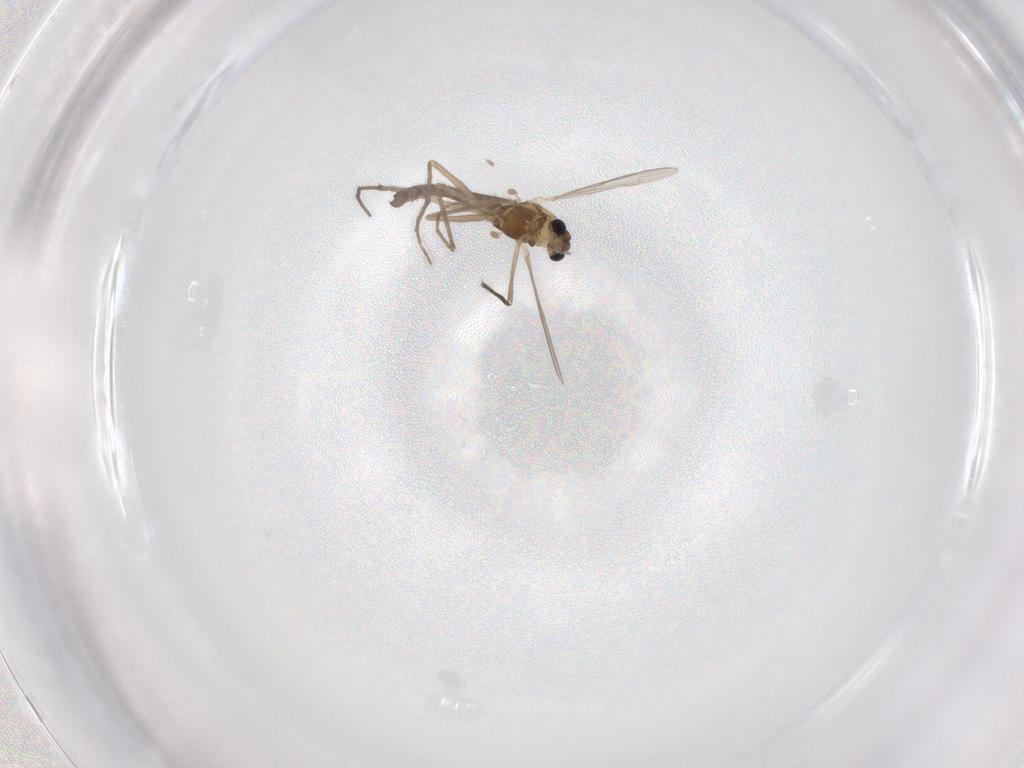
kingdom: Animalia
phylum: Arthropoda
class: Insecta
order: Diptera
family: Chironomidae
